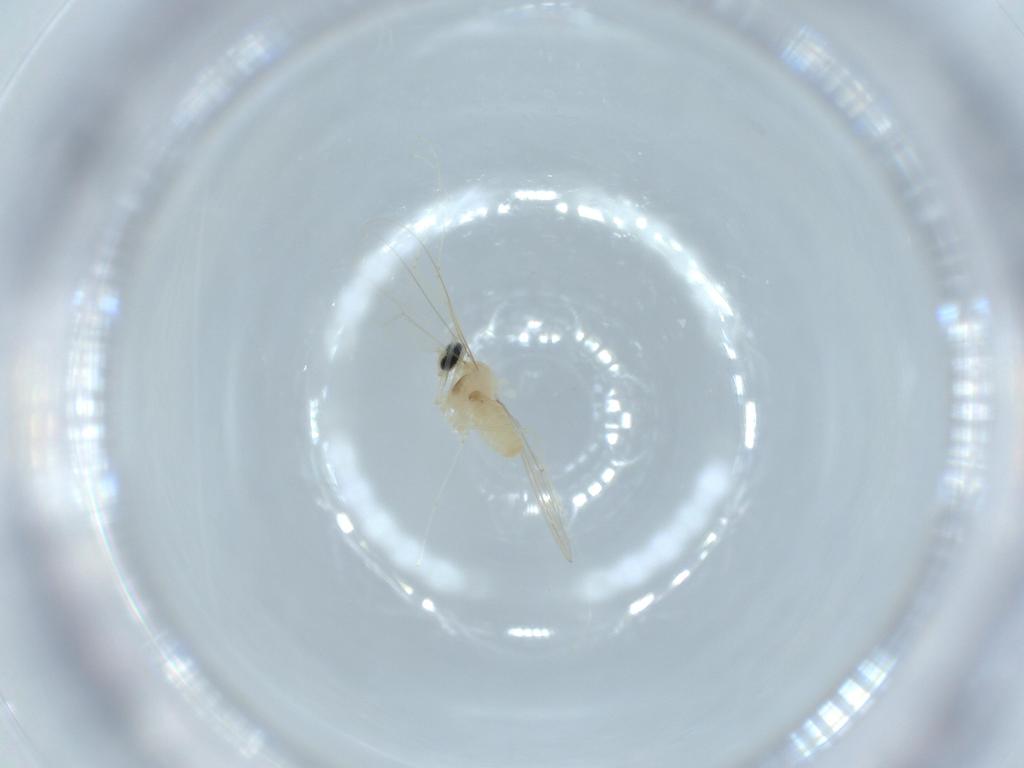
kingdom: Animalia
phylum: Arthropoda
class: Insecta
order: Diptera
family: Cecidomyiidae
